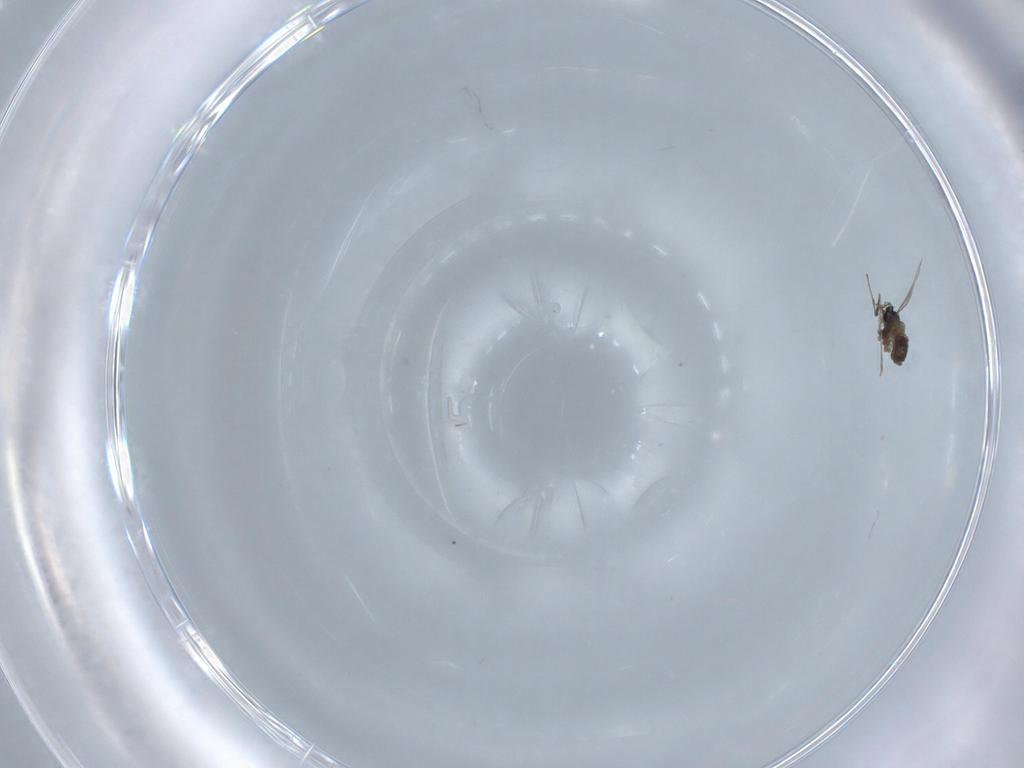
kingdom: Animalia
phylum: Arthropoda
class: Insecta
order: Diptera
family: Cecidomyiidae
